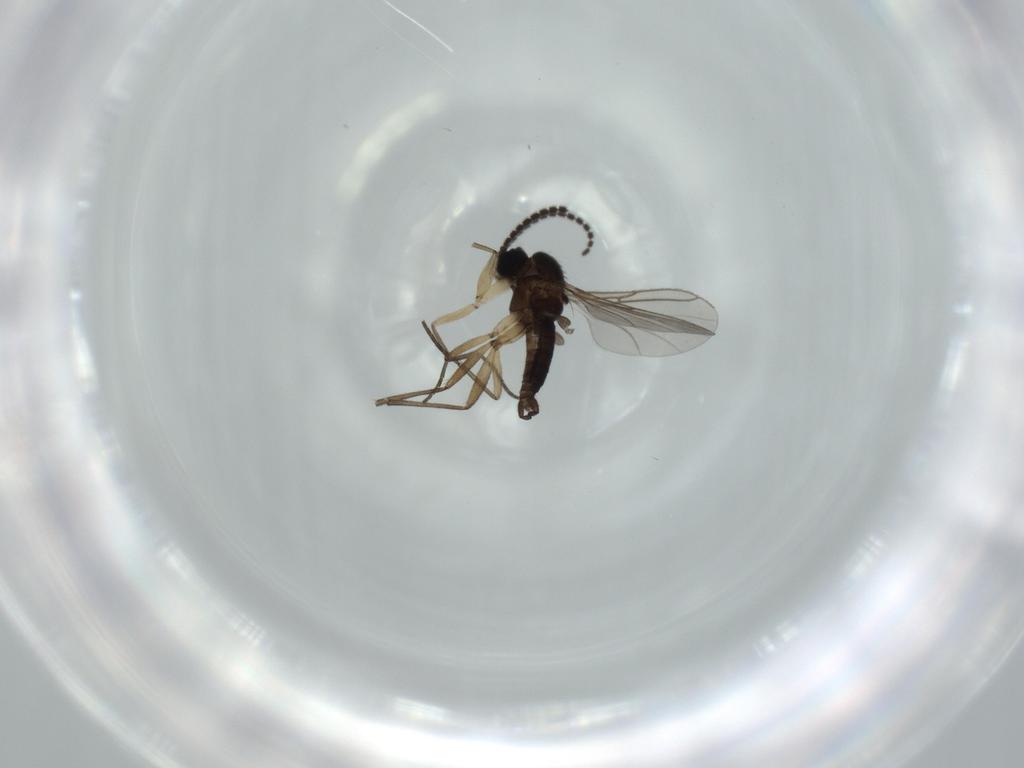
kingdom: Animalia
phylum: Arthropoda
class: Insecta
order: Diptera
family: Sciaridae
